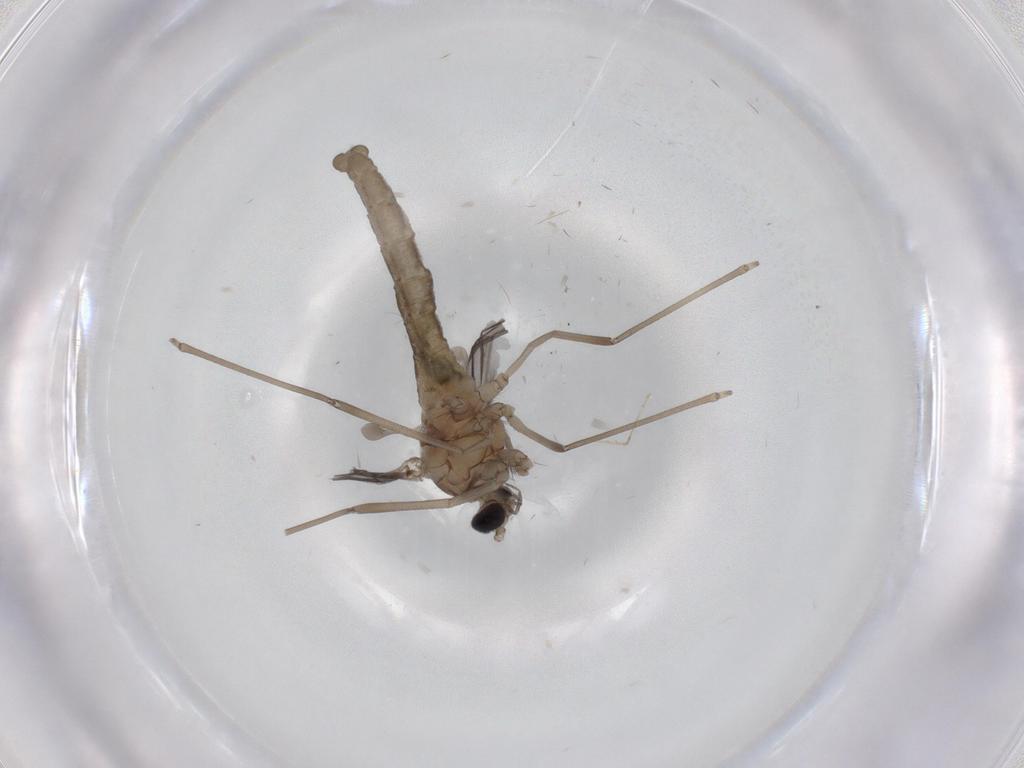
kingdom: Animalia
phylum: Arthropoda
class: Insecta
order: Diptera
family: Cecidomyiidae
